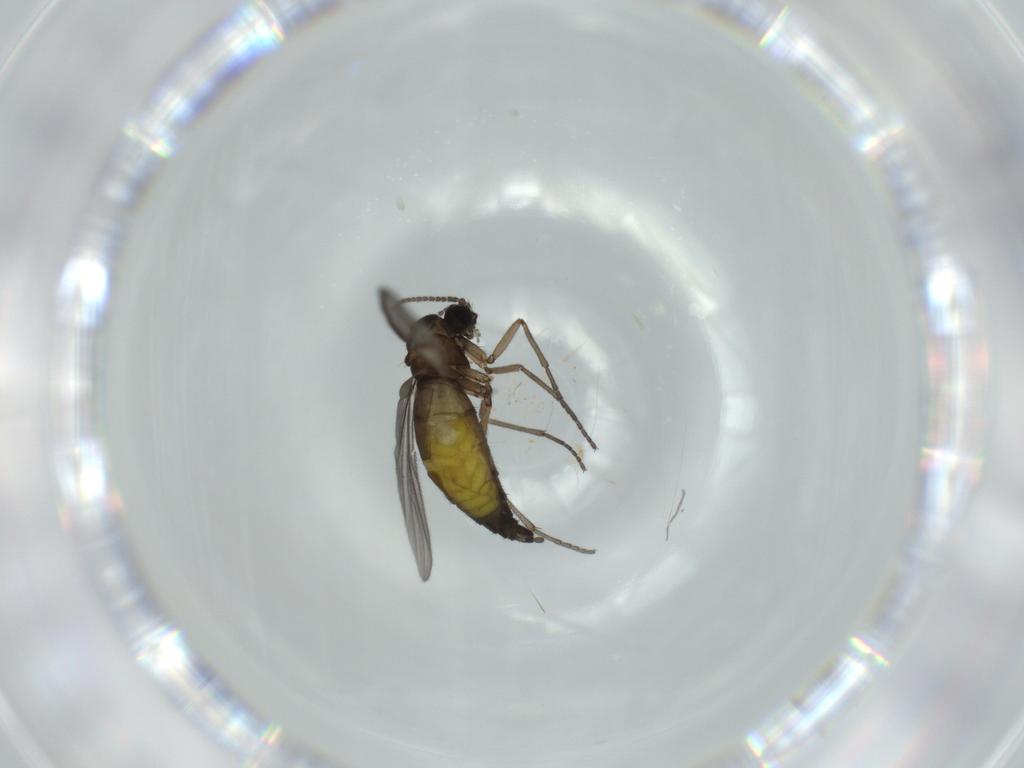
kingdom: Animalia
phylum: Arthropoda
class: Insecta
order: Diptera
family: Sciaridae
